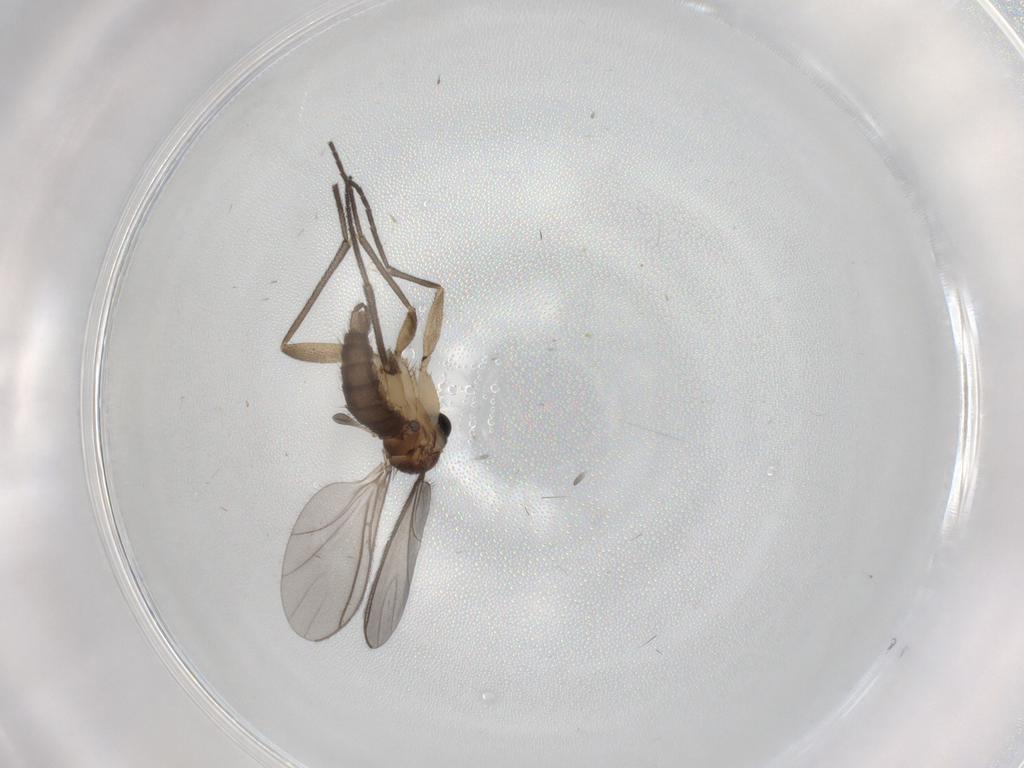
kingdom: Animalia
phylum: Arthropoda
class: Insecta
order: Diptera
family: Sciaridae
